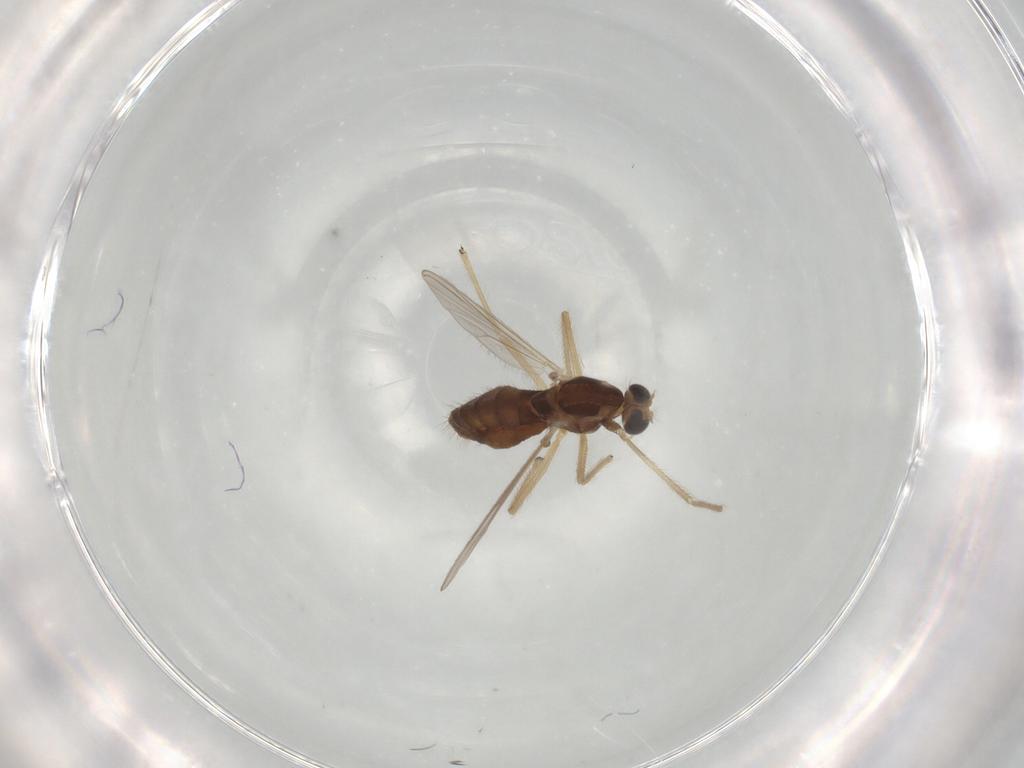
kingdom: Animalia
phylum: Arthropoda
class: Insecta
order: Diptera
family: Chironomidae
